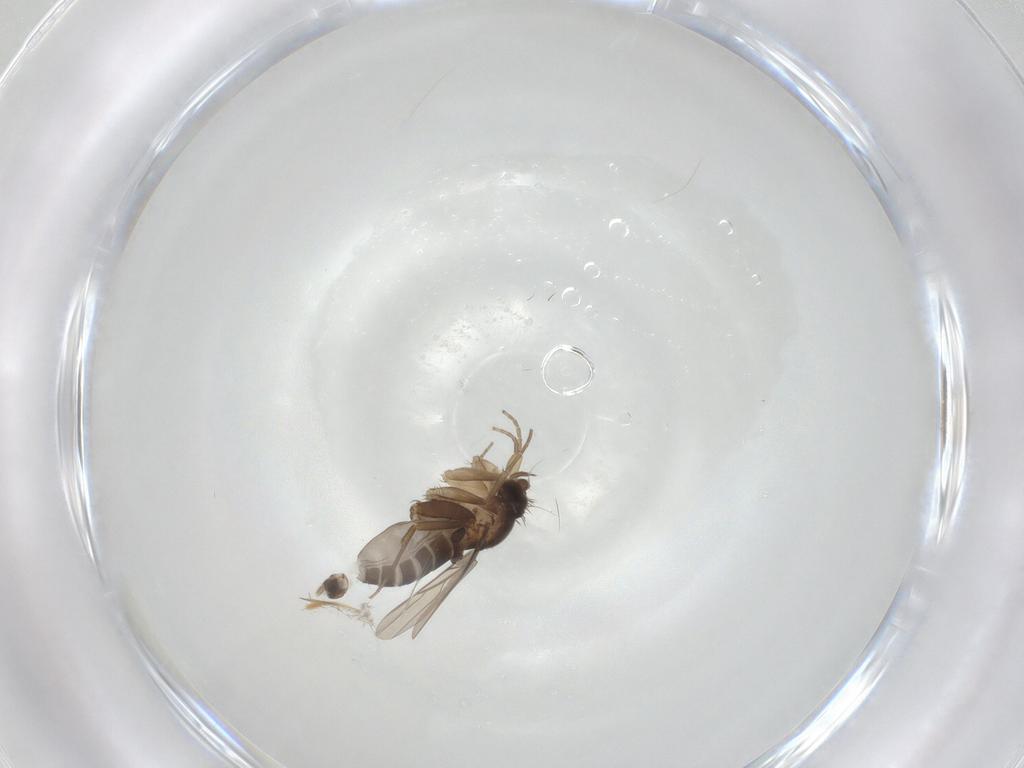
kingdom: Animalia
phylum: Arthropoda
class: Insecta
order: Diptera
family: Phoridae
